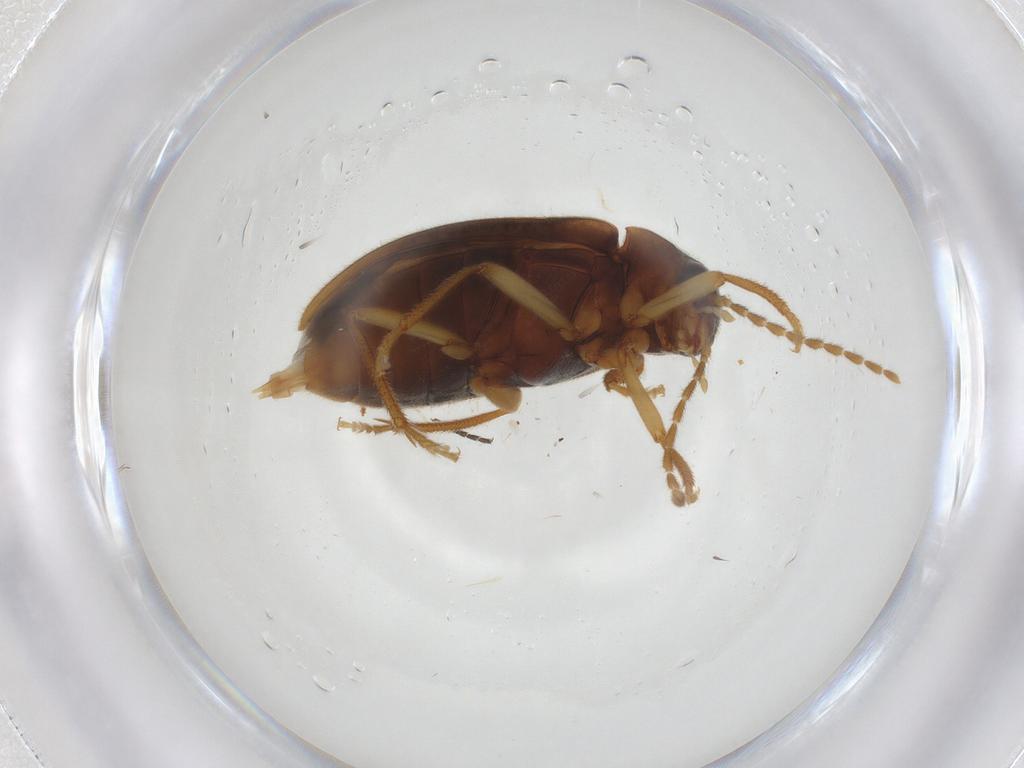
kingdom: Animalia
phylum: Arthropoda
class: Insecta
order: Coleoptera
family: Ptilodactylidae
